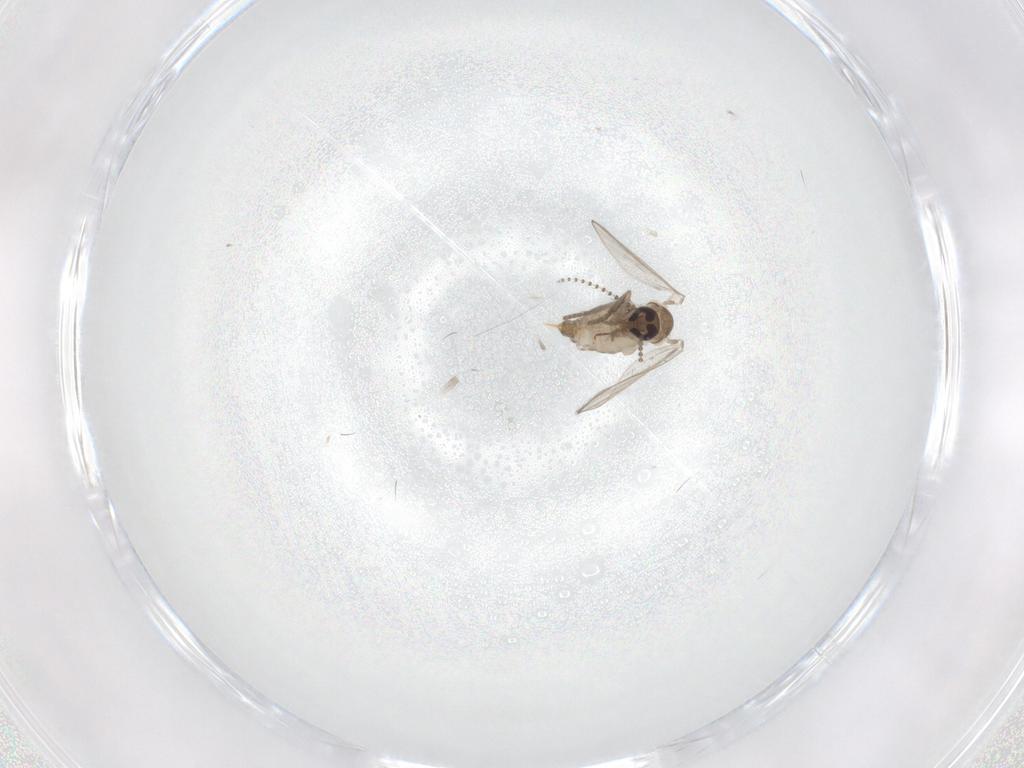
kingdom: Animalia
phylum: Arthropoda
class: Insecta
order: Diptera
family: Psychodidae
